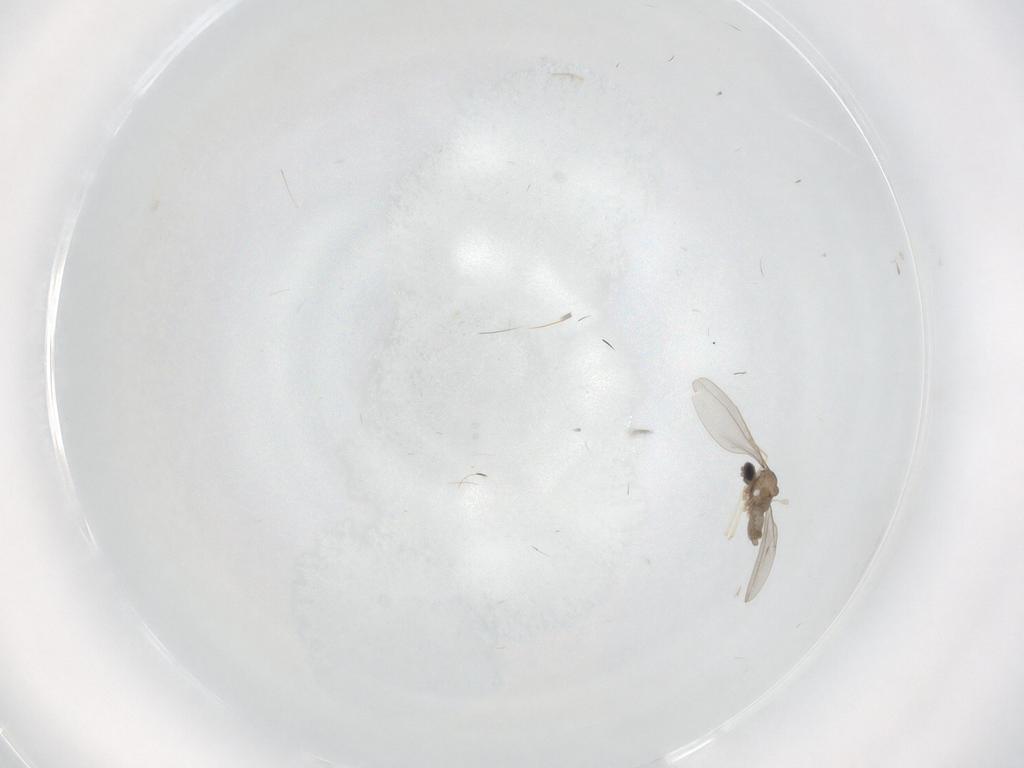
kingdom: Animalia
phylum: Arthropoda
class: Insecta
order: Diptera
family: Cecidomyiidae
